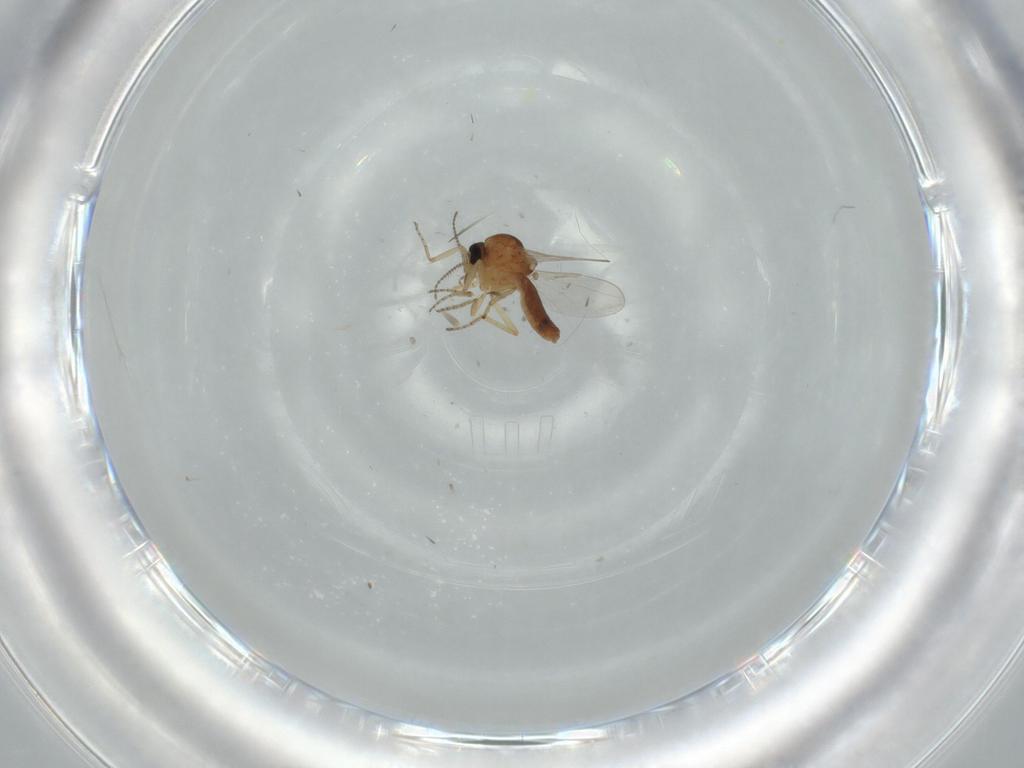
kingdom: Animalia
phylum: Arthropoda
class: Insecta
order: Diptera
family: Ceratopogonidae
